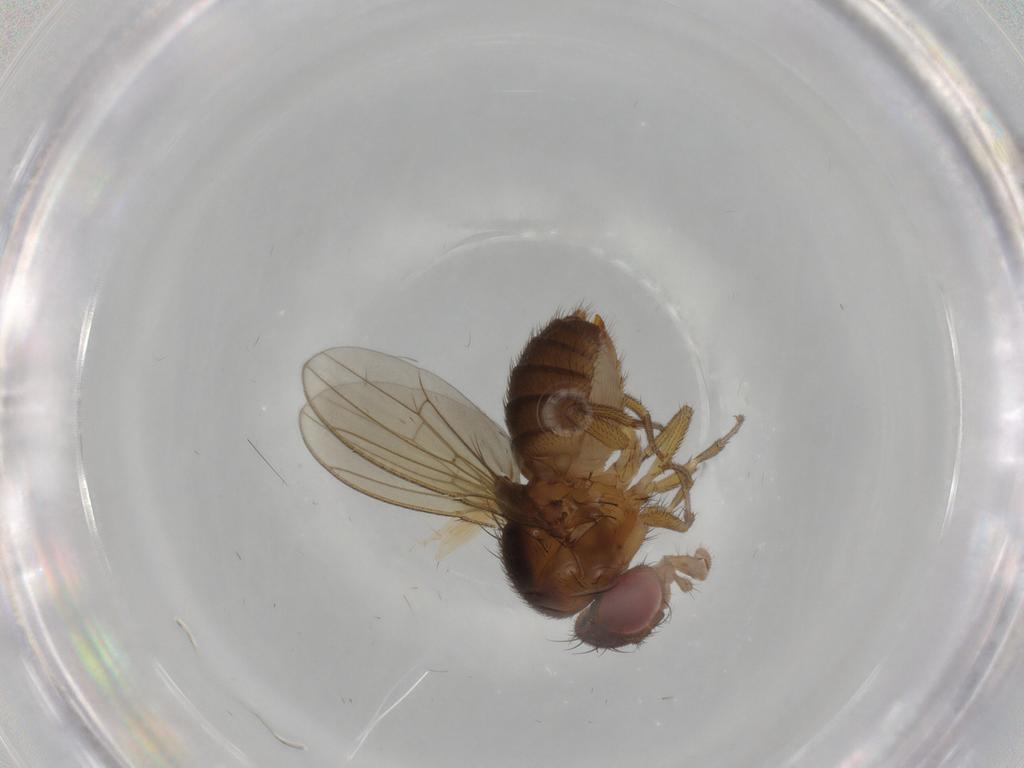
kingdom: Animalia
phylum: Arthropoda
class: Insecta
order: Diptera
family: Drosophilidae
